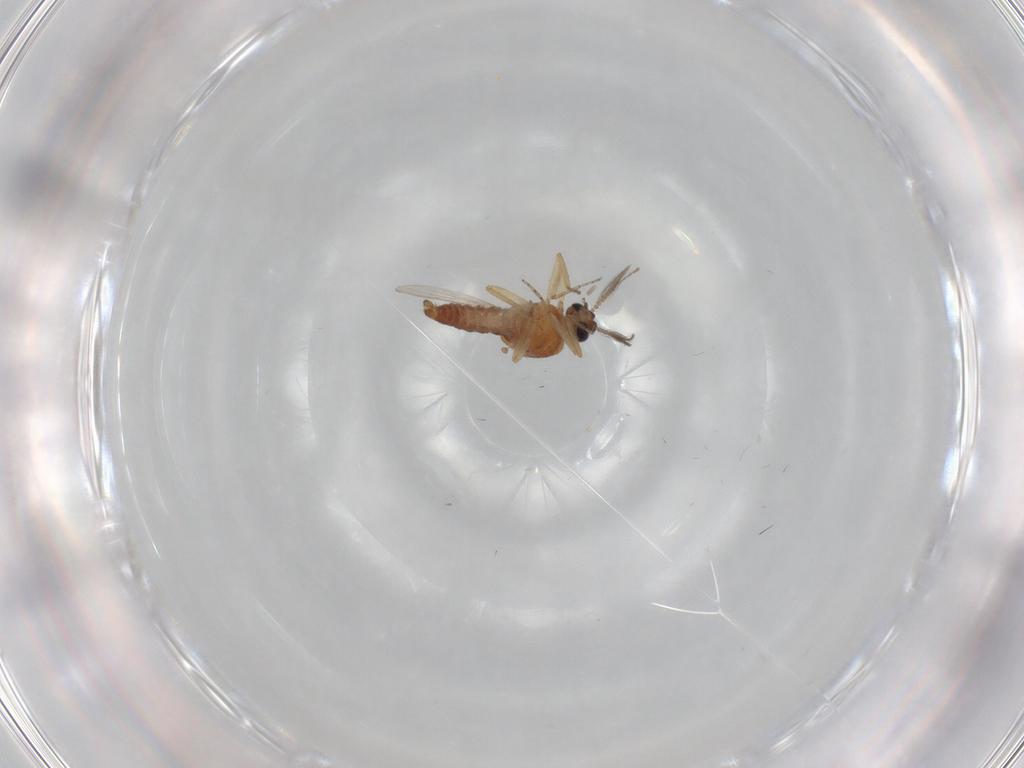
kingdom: Animalia
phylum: Arthropoda
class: Insecta
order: Diptera
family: Ceratopogonidae
